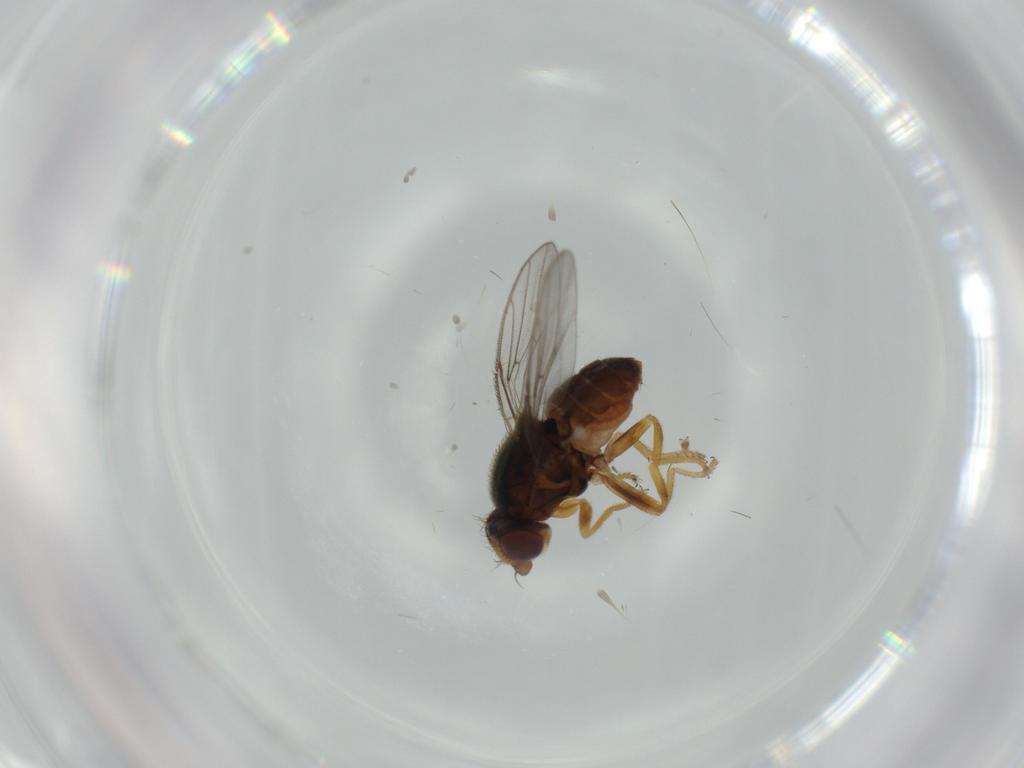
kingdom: Animalia
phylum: Arthropoda
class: Insecta
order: Diptera
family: Chloropidae
